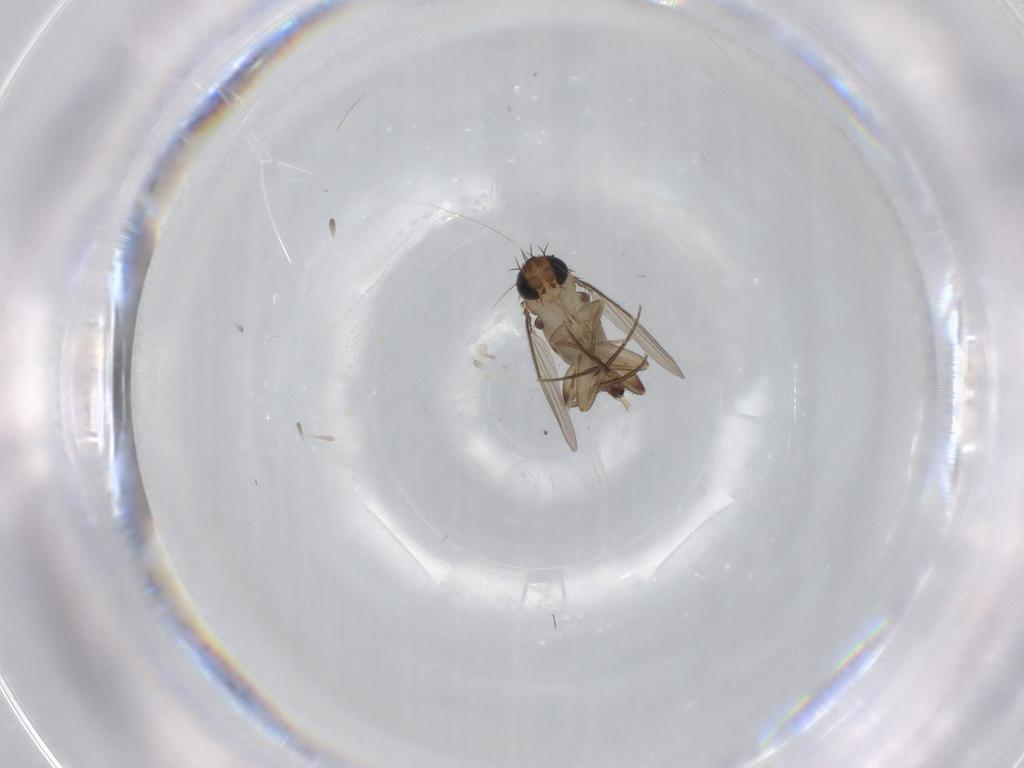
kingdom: Animalia
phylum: Arthropoda
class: Insecta
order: Diptera
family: Phoridae
